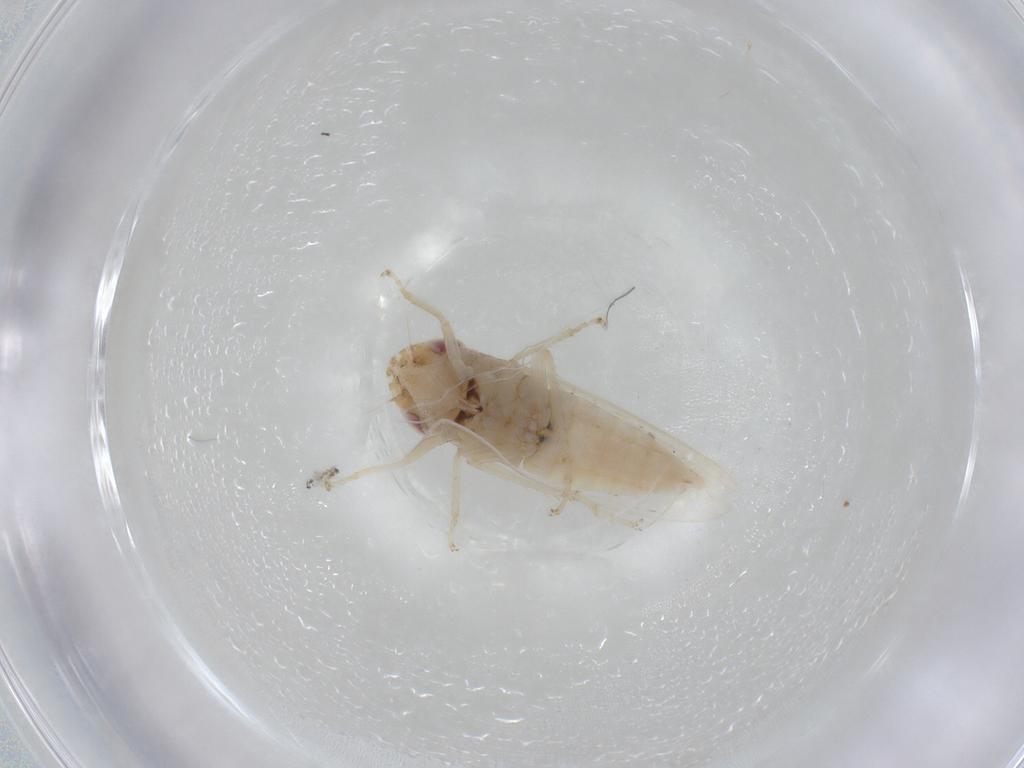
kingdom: Animalia
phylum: Arthropoda
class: Insecta
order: Hemiptera
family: Cicadellidae
